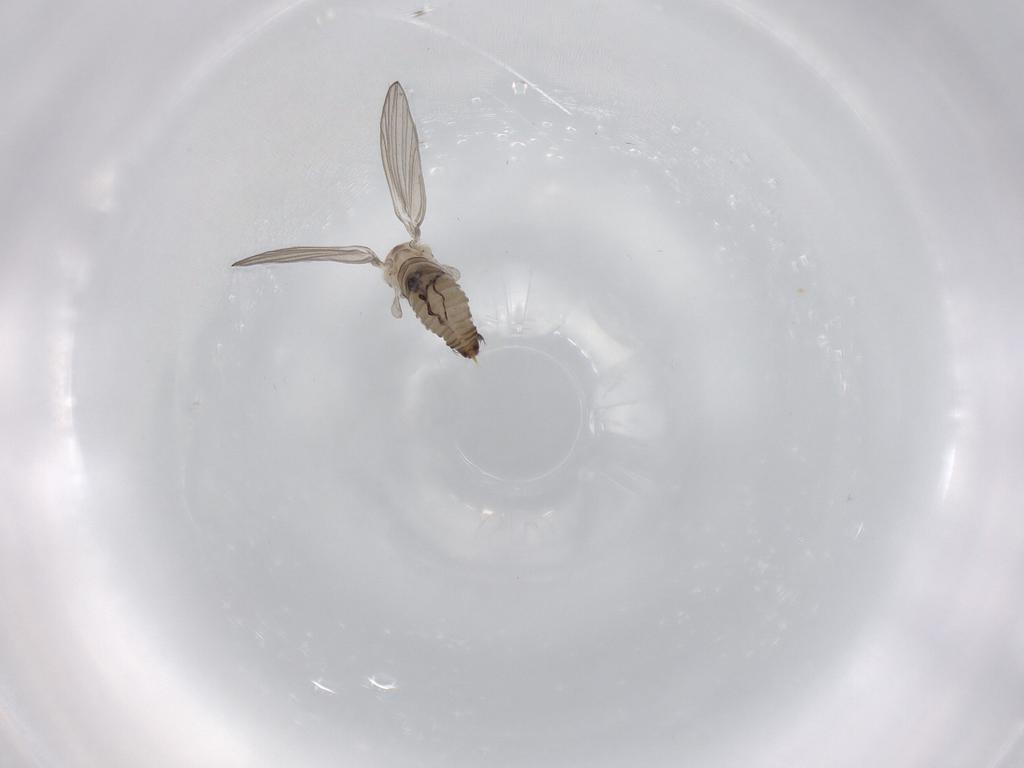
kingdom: Animalia
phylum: Arthropoda
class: Insecta
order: Diptera
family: Psychodidae
